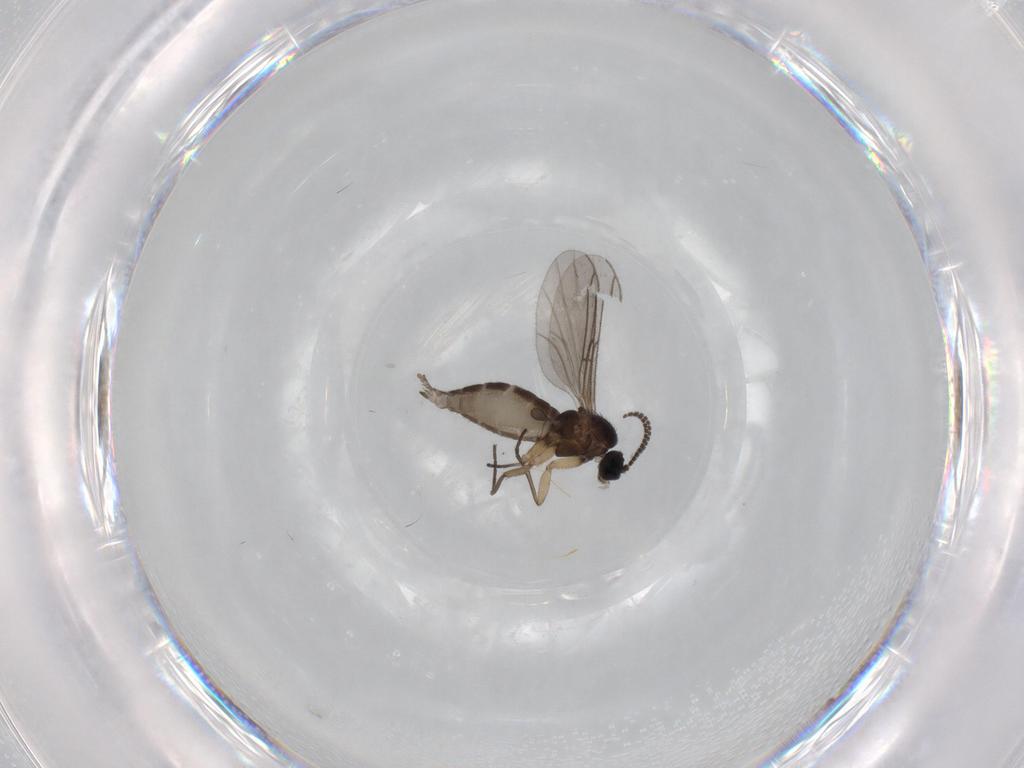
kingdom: Animalia
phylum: Arthropoda
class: Insecta
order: Diptera
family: Sciaridae
